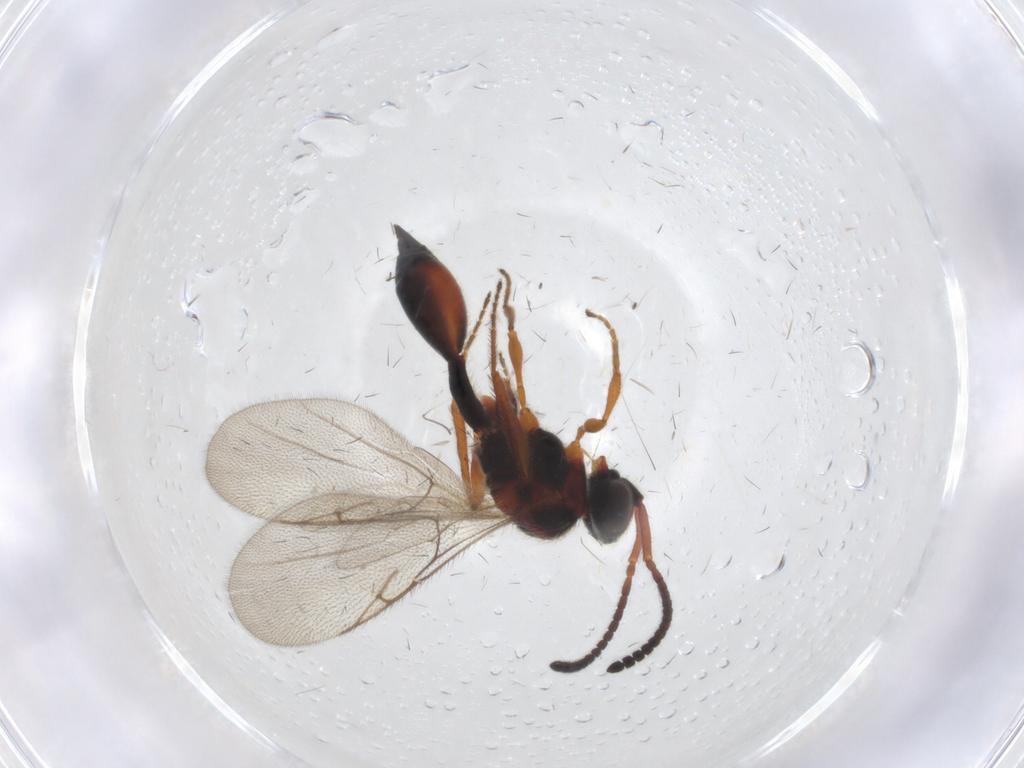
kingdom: Animalia
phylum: Arthropoda
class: Insecta
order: Hymenoptera
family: Diapriidae
